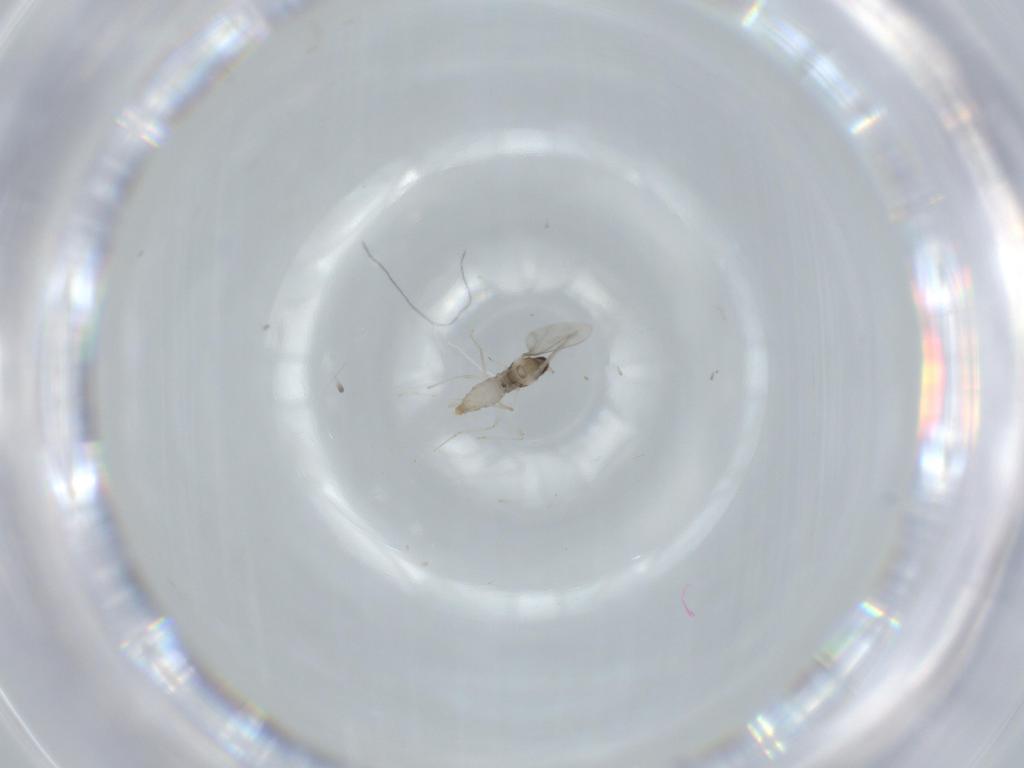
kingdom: Animalia
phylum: Arthropoda
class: Insecta
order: Diptera
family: Cecidomyiidae
